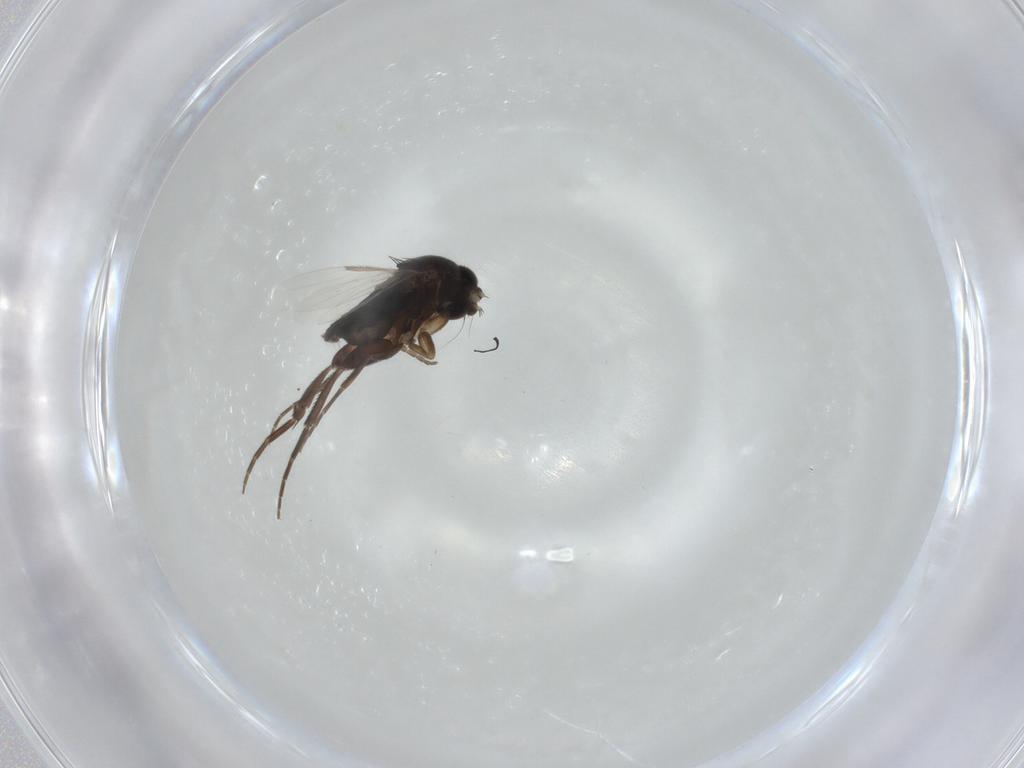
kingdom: Animalia
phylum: Arthropoda
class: Insecta
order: Diptera
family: Phoridae
